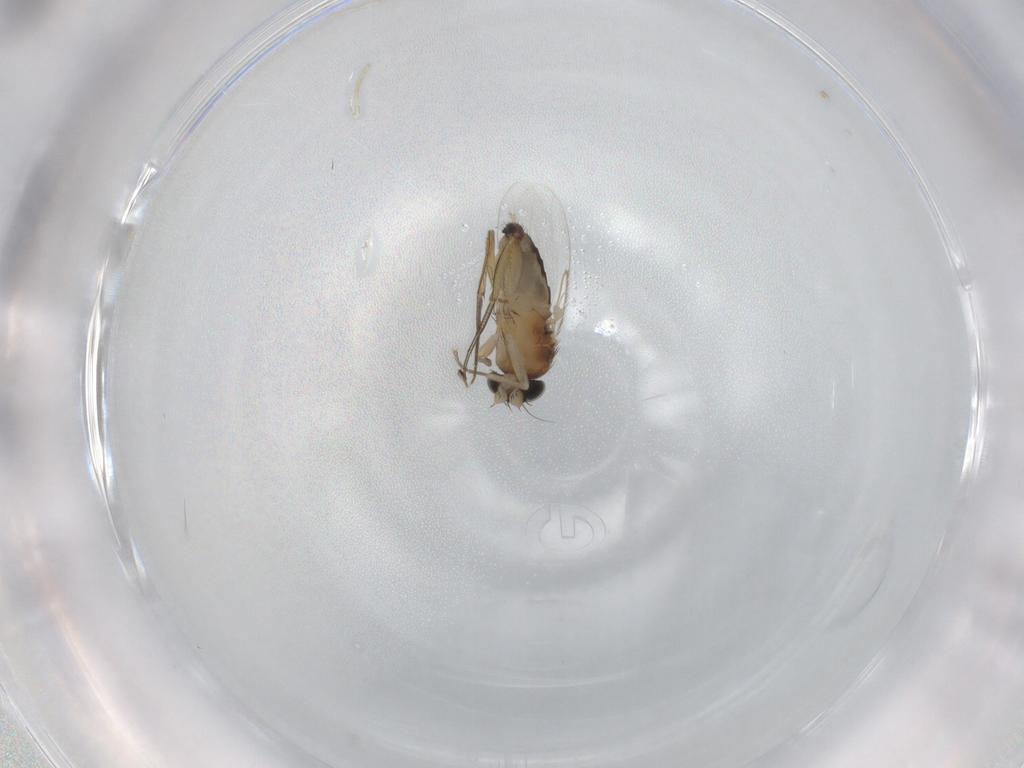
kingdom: Animalia
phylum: Arthropoda
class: Insecta
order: Diptera
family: Phoridae
